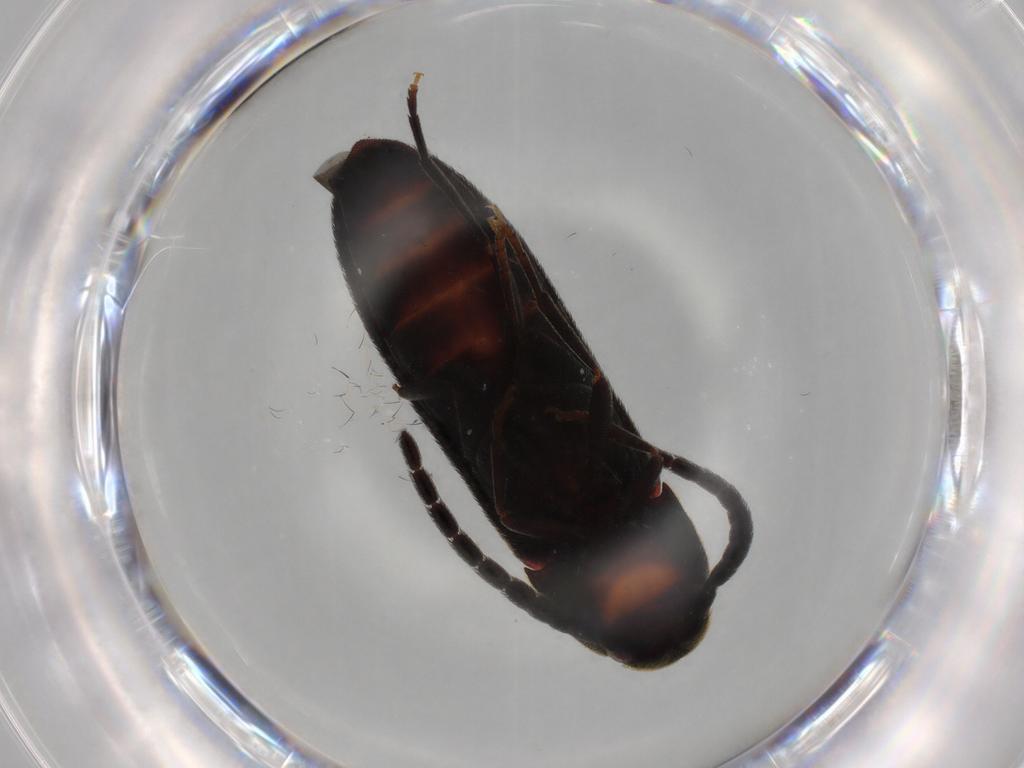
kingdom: Animalia
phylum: Arthropoda
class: Insecta
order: Coleoptera
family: Eucnemidae
